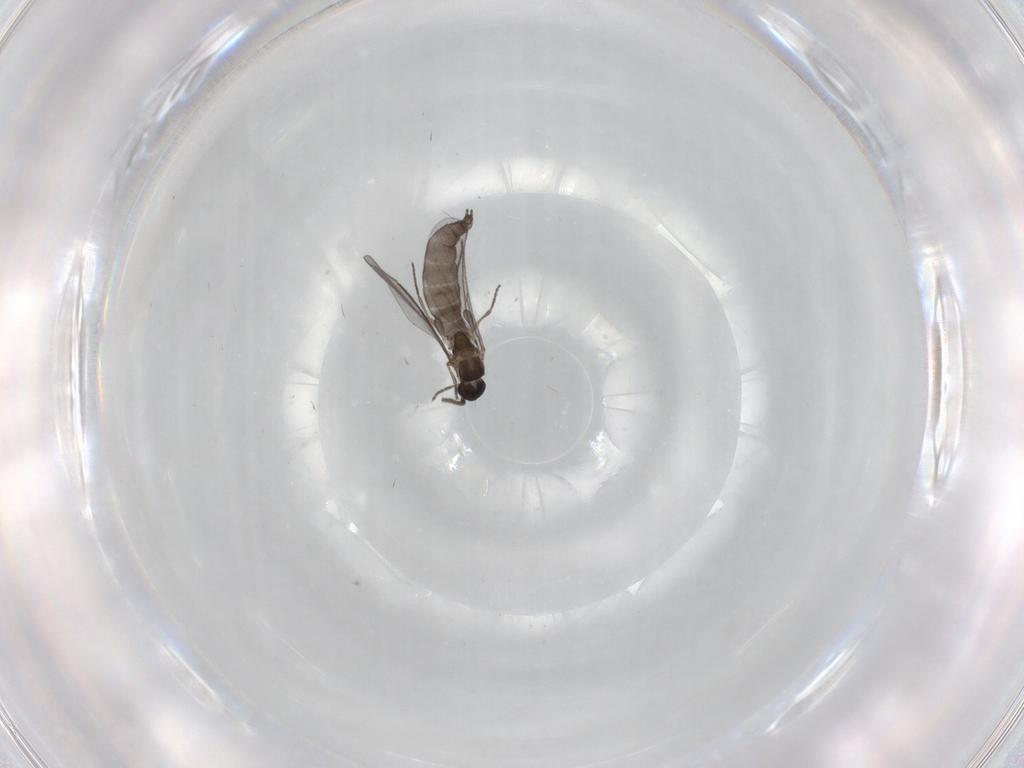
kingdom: Animalia
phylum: Arthropoda
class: Insecta
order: Diptera
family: Sciaridae
